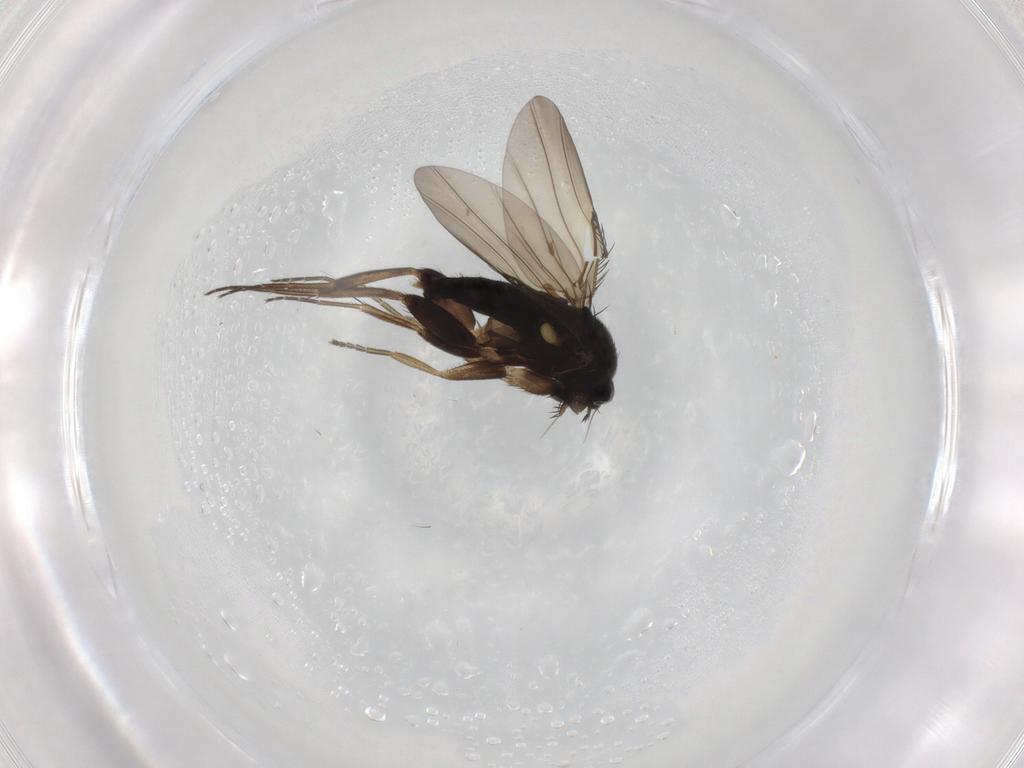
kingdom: Animalia
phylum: Arthropoda
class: Insecta
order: Diptera
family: Phoridae
